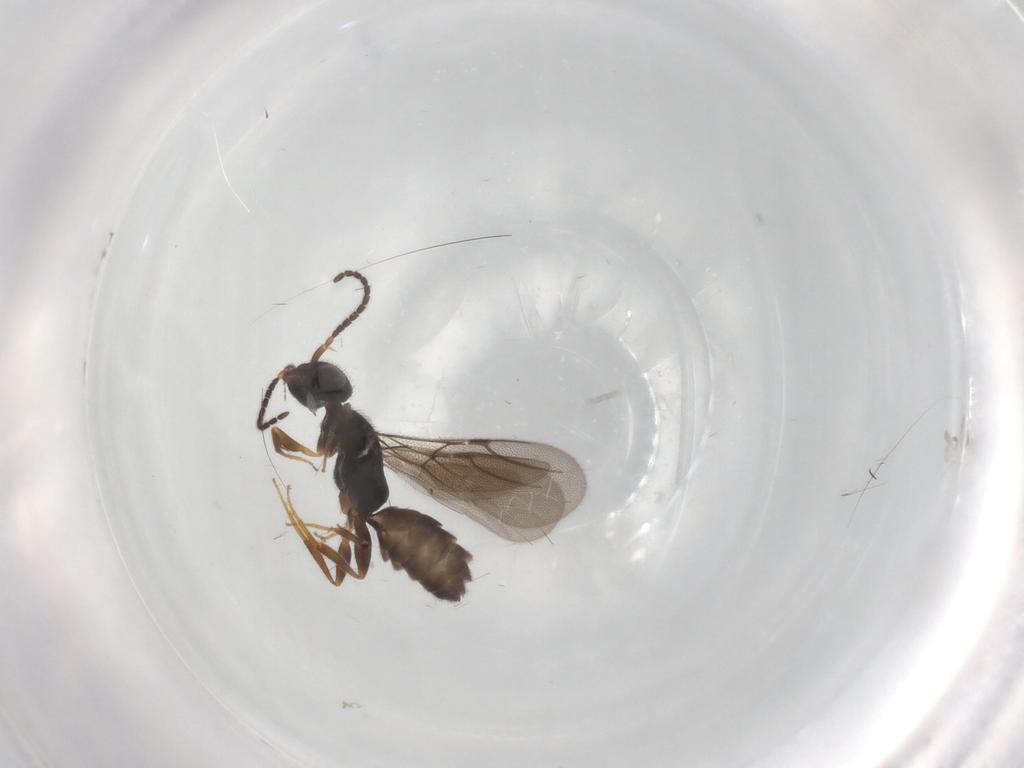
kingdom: Animalia
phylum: Arthropoda
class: Insecta
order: Hymenoptera
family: Bethylidae
